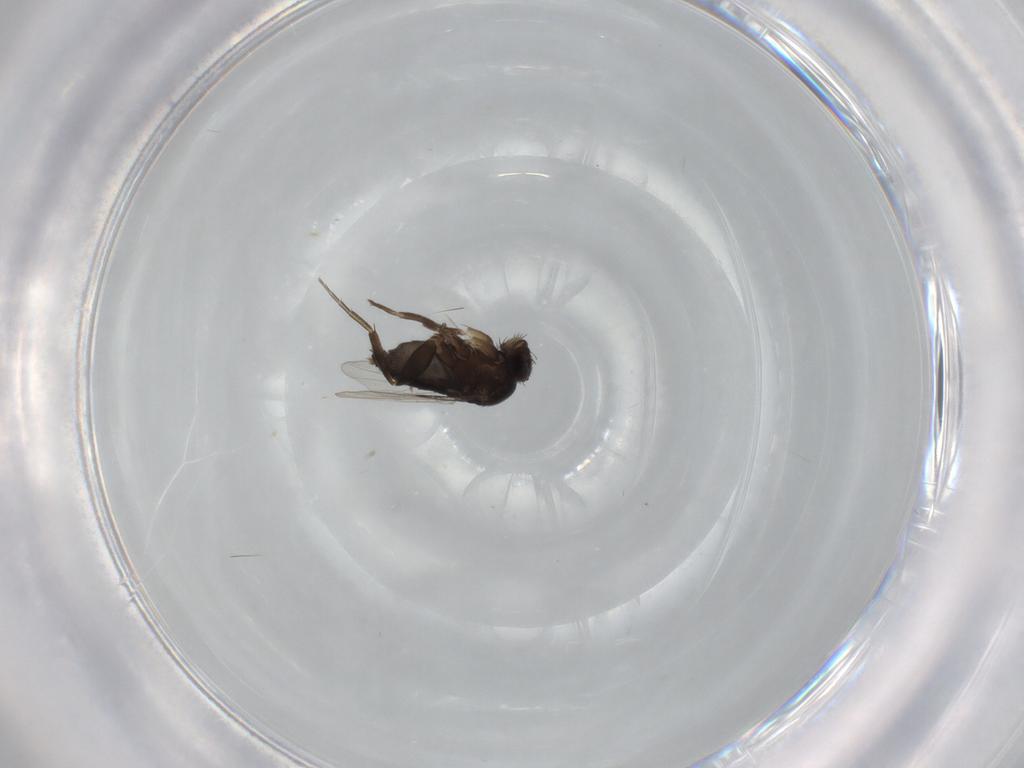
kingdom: Animalia
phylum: Arthropoda
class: Insecta
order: Diptera
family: Phoridae
